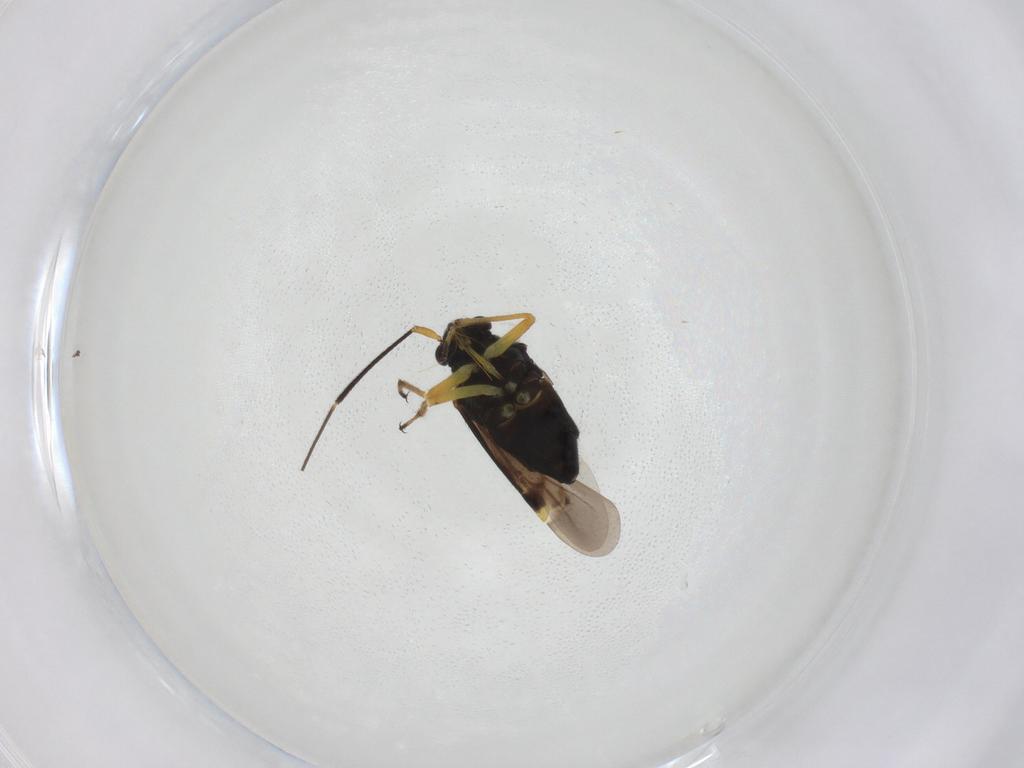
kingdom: Animalia
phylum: Arthropoda
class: Insecta
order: Hemiptera
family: Miridae
